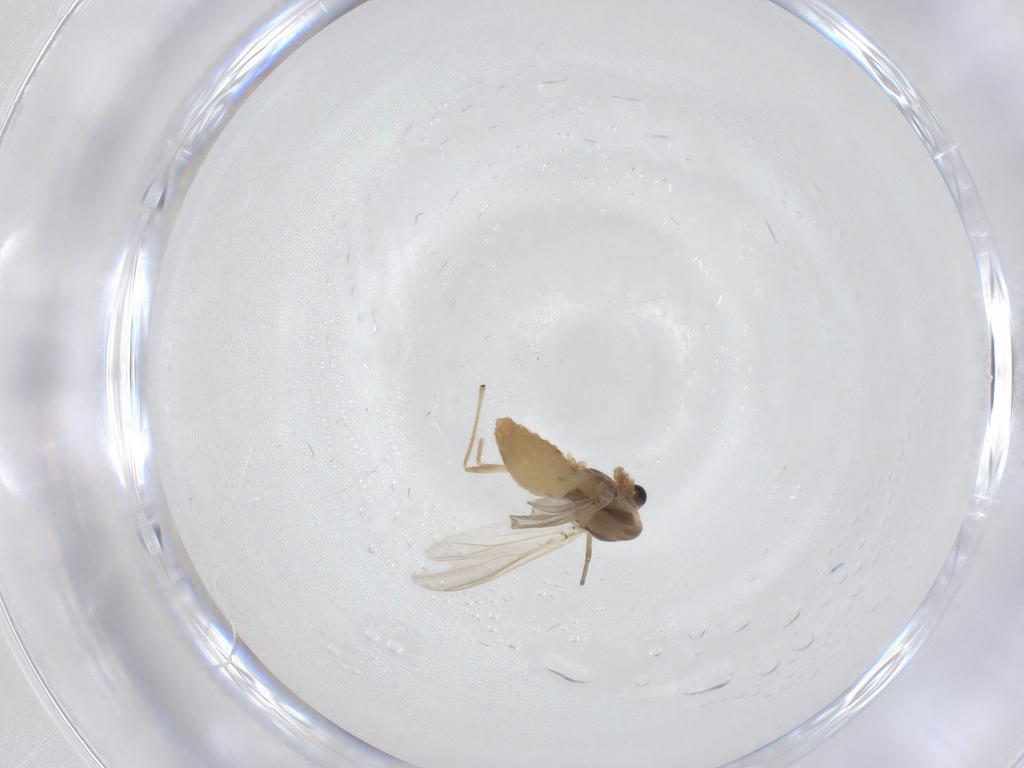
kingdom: Animalia
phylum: Arthropoda
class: Insecta
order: Diptera
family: Chironomidae
